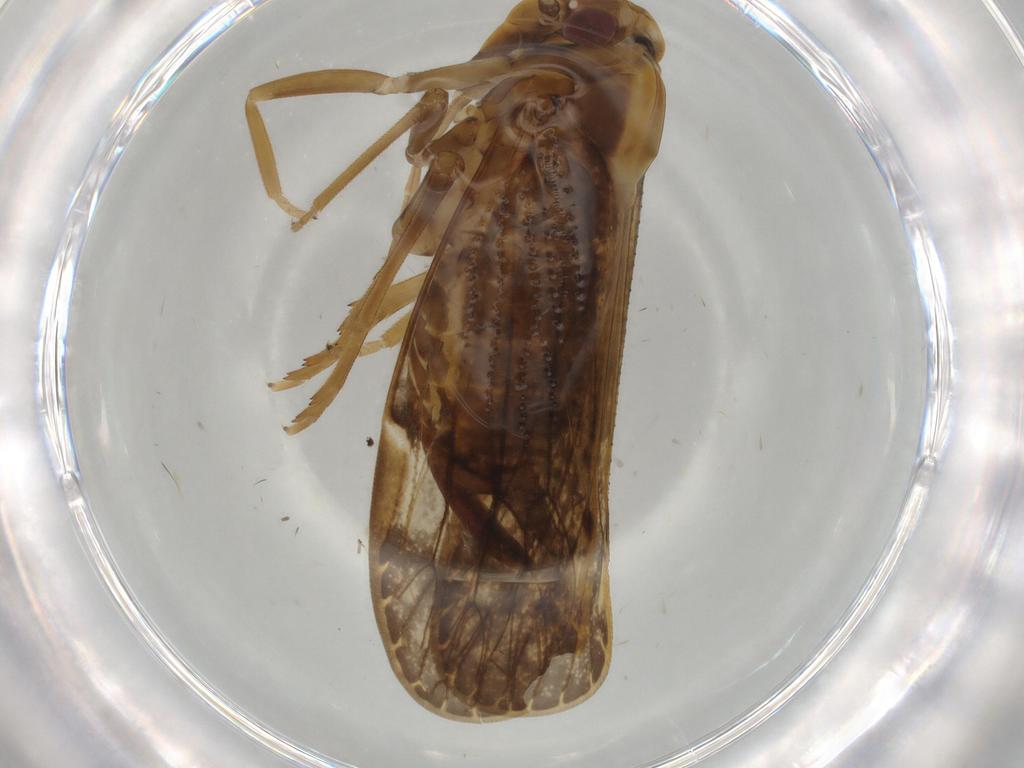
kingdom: Animalia
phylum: Arthropoda
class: Insecta
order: Hemiptera
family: Cixiidae
